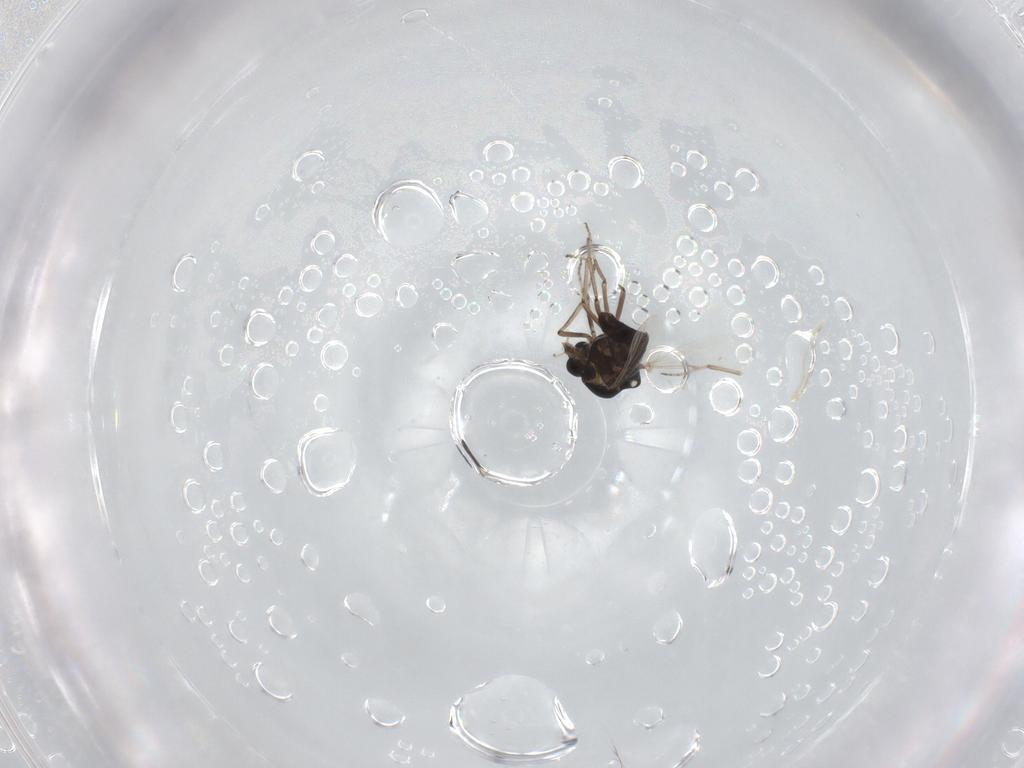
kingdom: Animalia
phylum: Arthropoda
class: Insecta
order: Diptera
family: Ceratopogonidae
